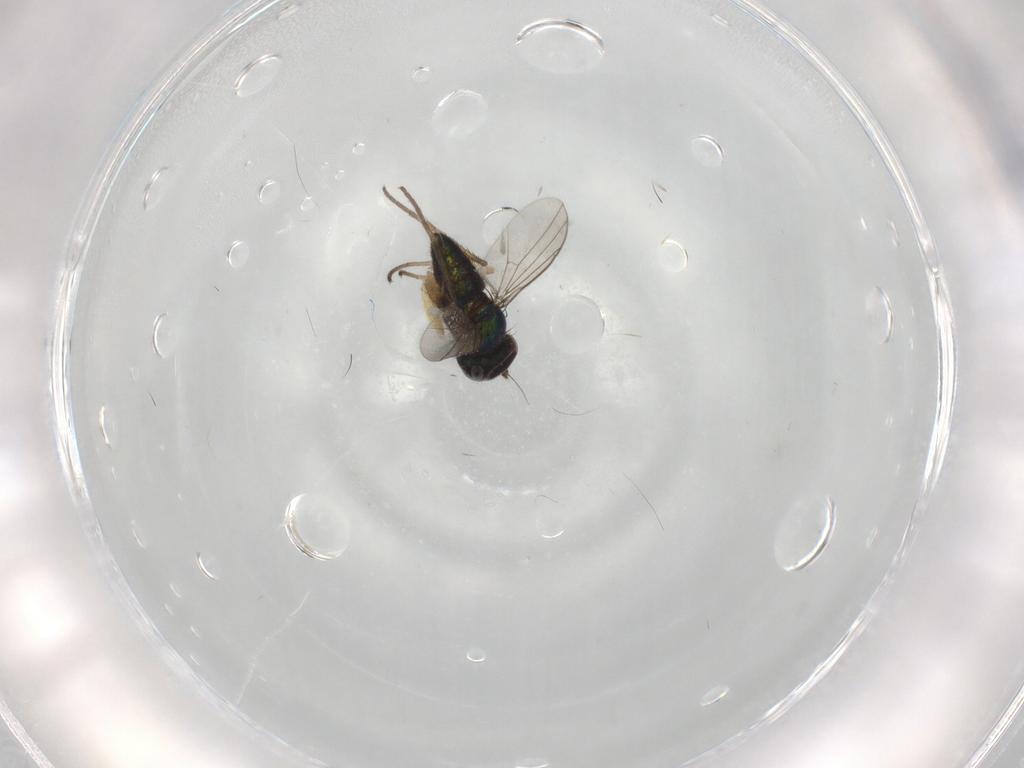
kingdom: Animalia
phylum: Arthropoda
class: Insecta
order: Diptera
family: Dolichopodidae
